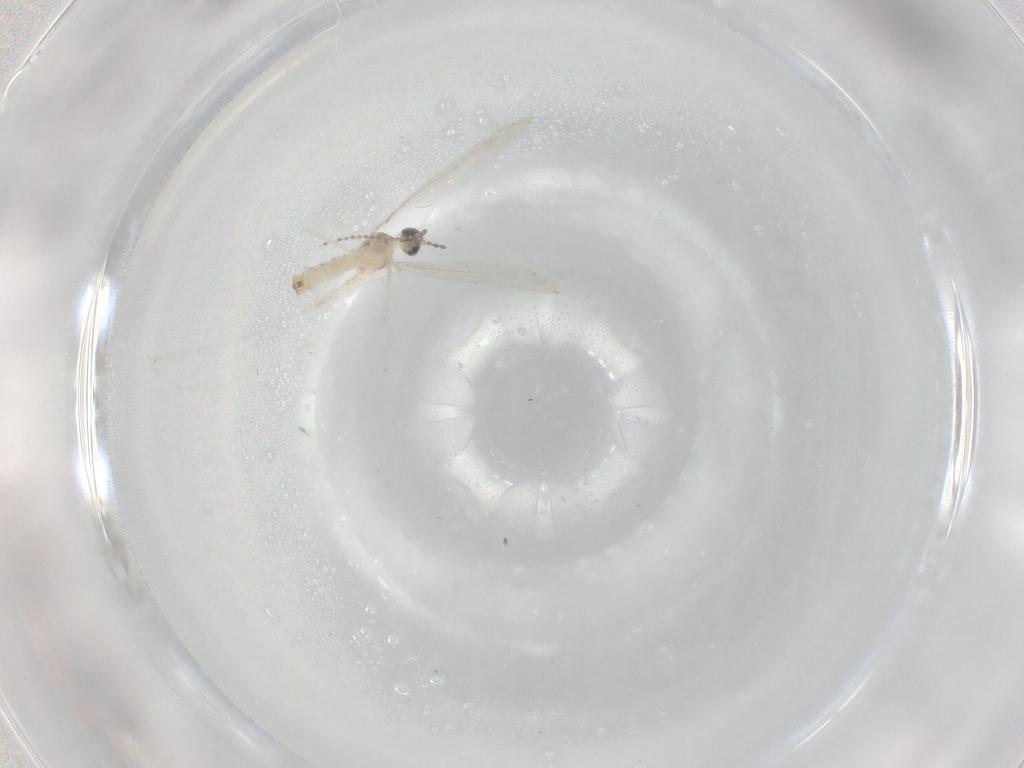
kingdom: Animalia
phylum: Arthropoda
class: Insecta
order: Diptera
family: Cecidomyiidae
